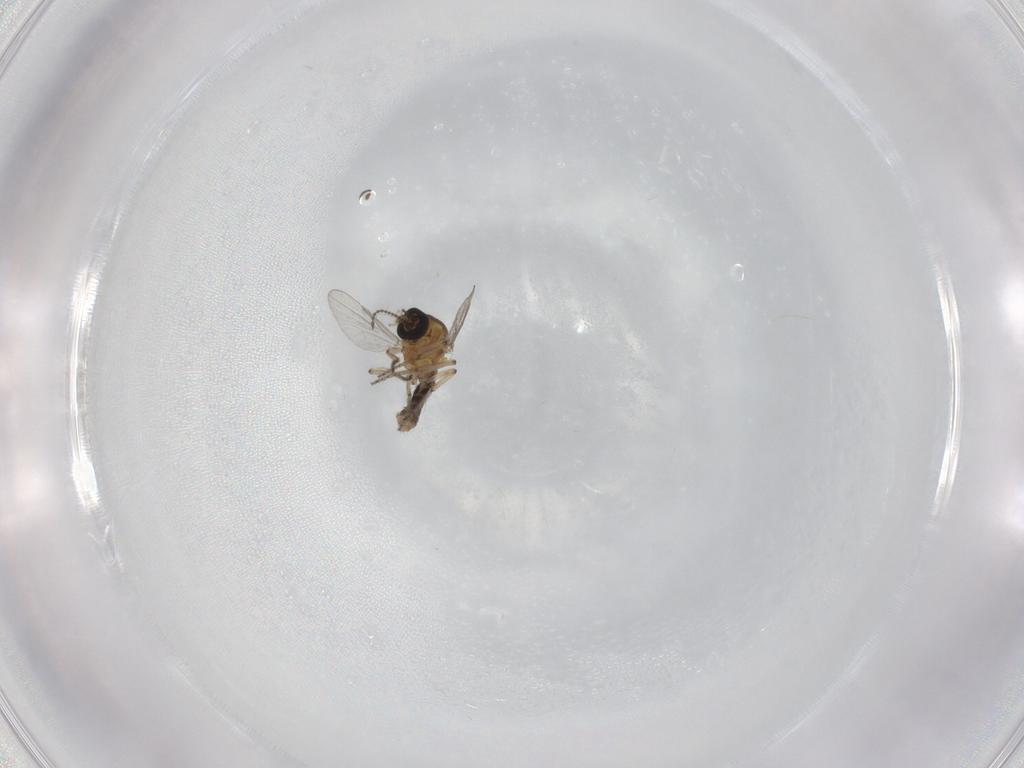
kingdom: Animalia
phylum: Arthropoda
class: Insecta
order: Diptera
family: Ceratopogonidae
